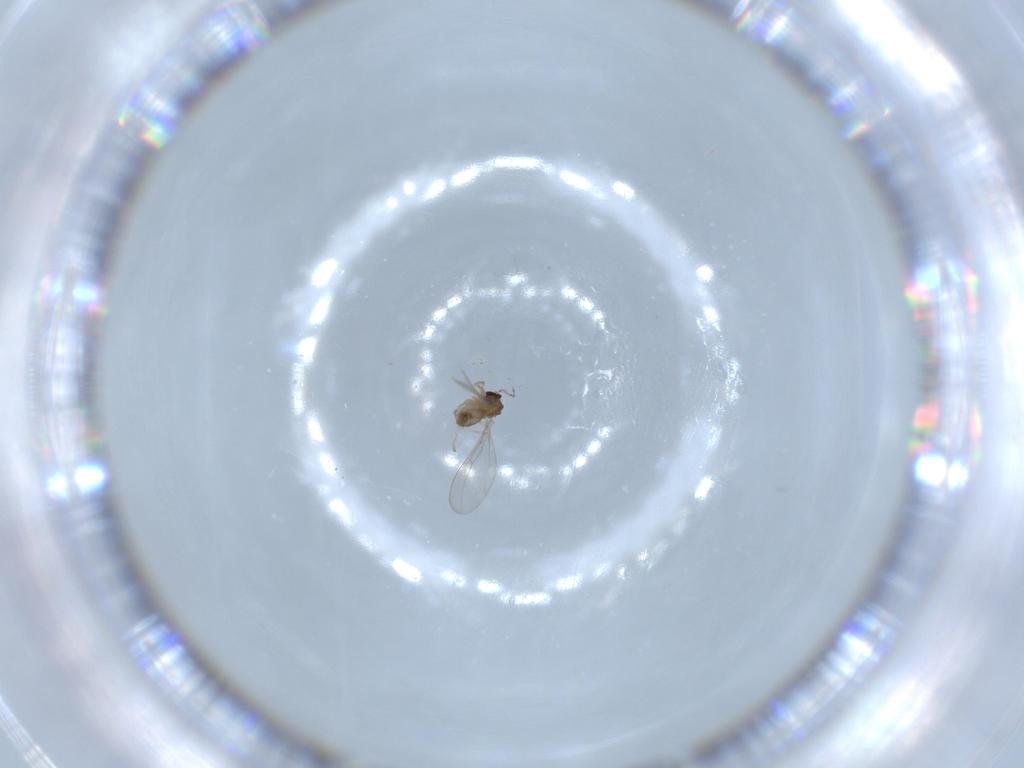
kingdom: Animalia
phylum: Arthropoda
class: Insecta
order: Diptera
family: Cecidomyiidae
